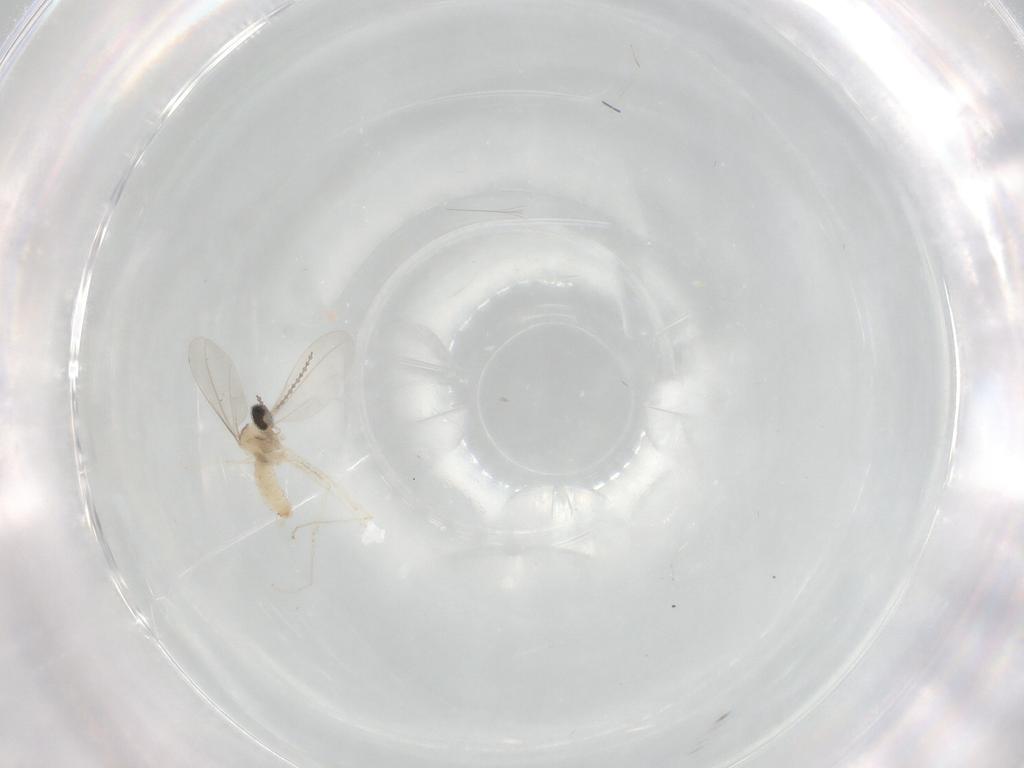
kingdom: Animalia
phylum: Arthropoda
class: Insecta
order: Diptera
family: Cecidomyiidae
